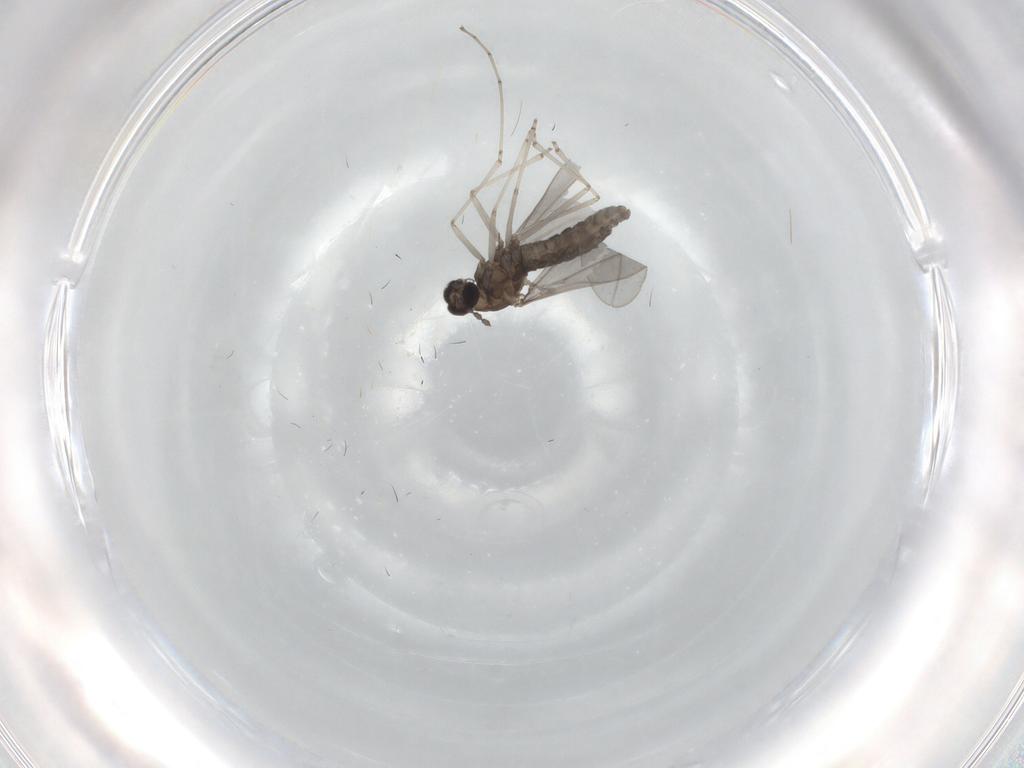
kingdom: Animalia
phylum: Arthropoda
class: Insecta
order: Diptera
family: Cecidomyiidae
